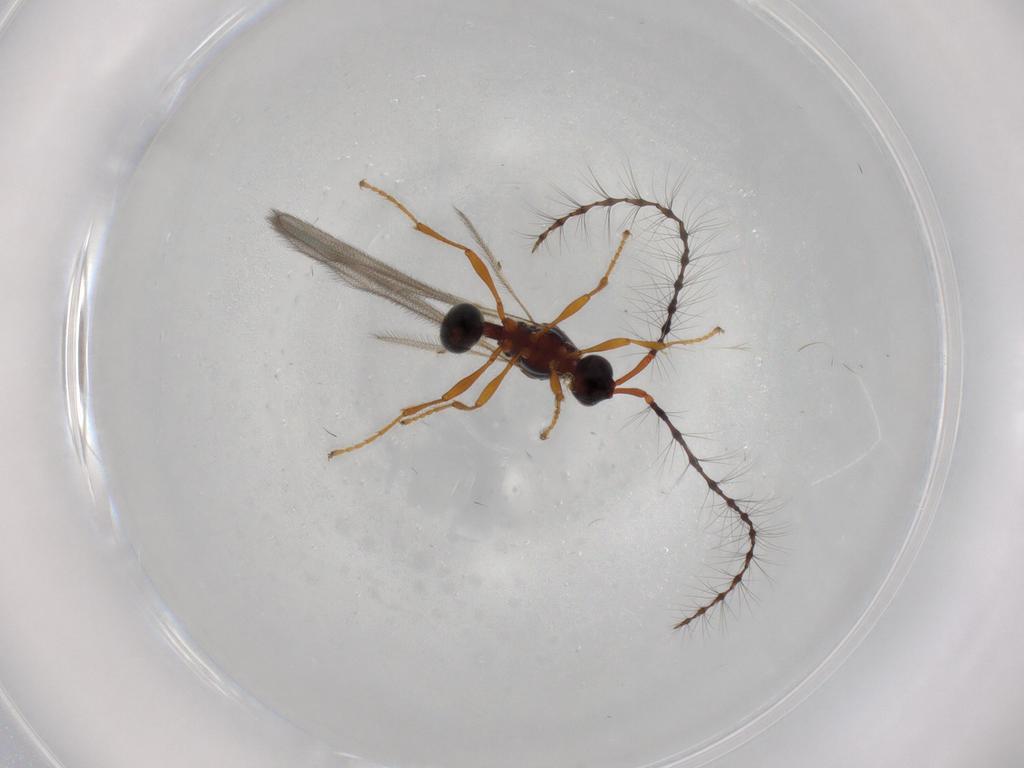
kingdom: Animalia
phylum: Arthropoda
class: Insecta
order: Hymenoptera
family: Diapriidae
